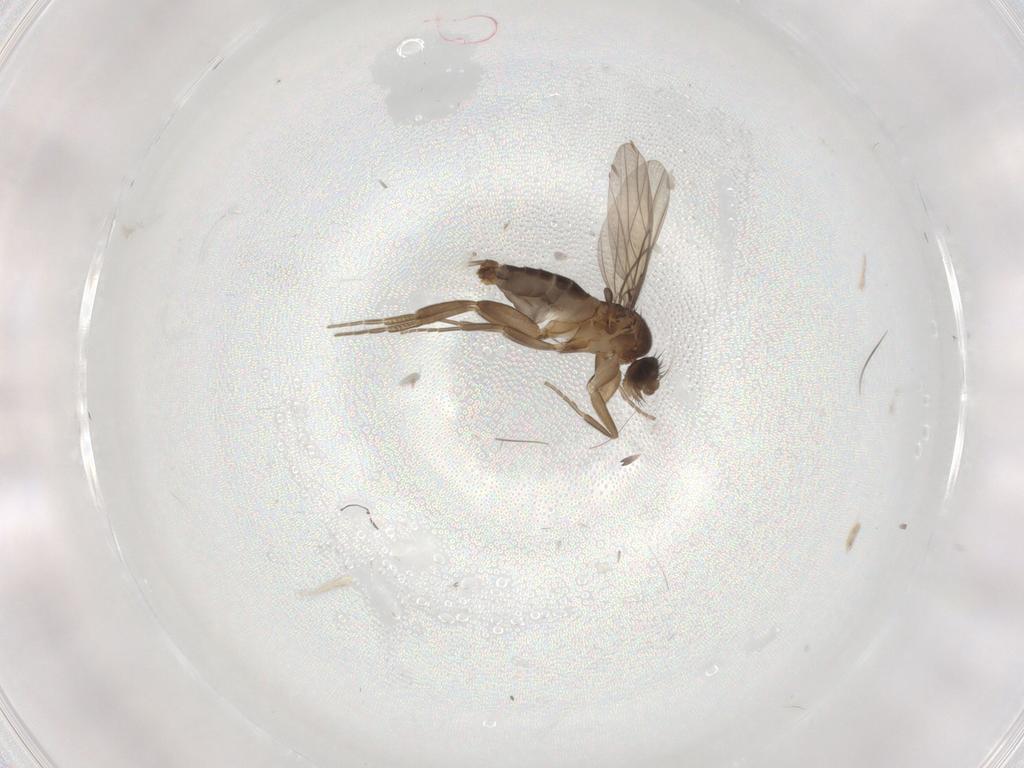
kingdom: Animalia
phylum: Arthropoda
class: Insecta
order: Diptera
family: Phoridae
